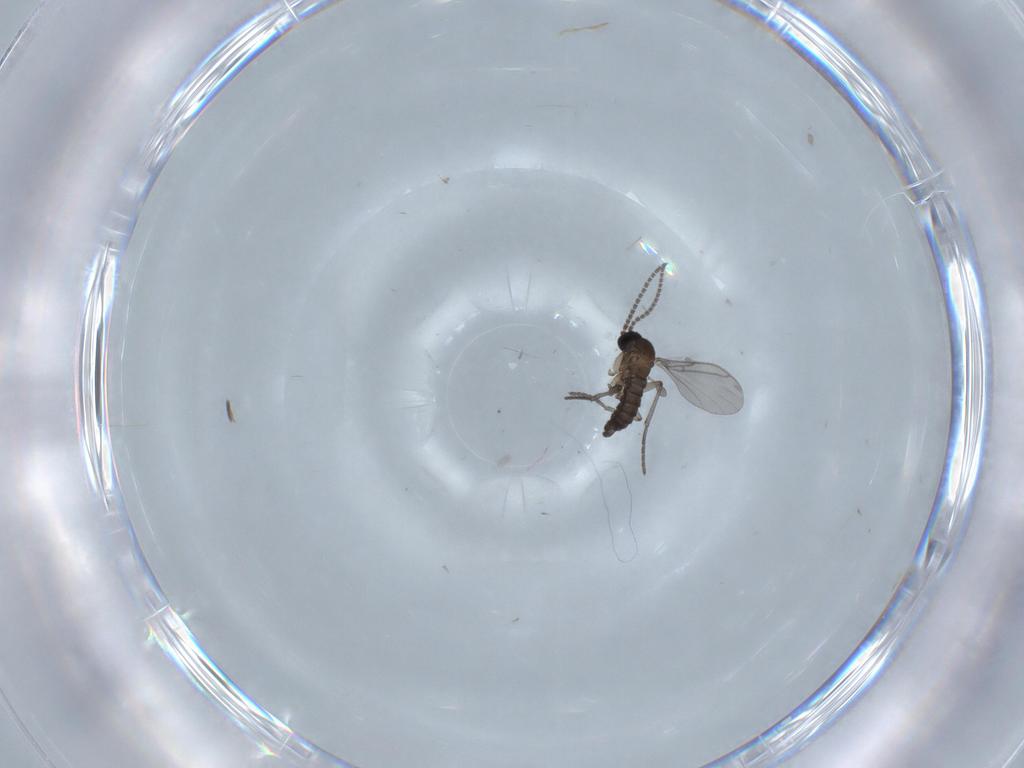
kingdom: Animalia
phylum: Arthropoda
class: Insecta
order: Diptera
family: Chironomidae
